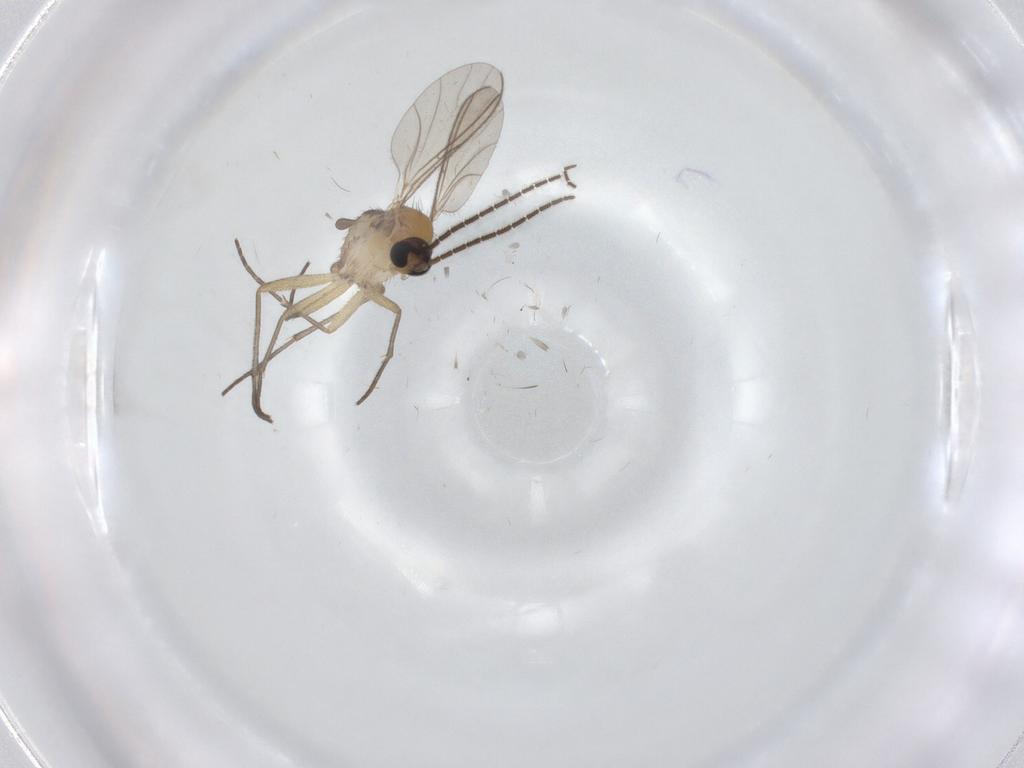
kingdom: Animalia
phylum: Arthropoda
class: Insecta
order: Diptera
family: Sciaridae
